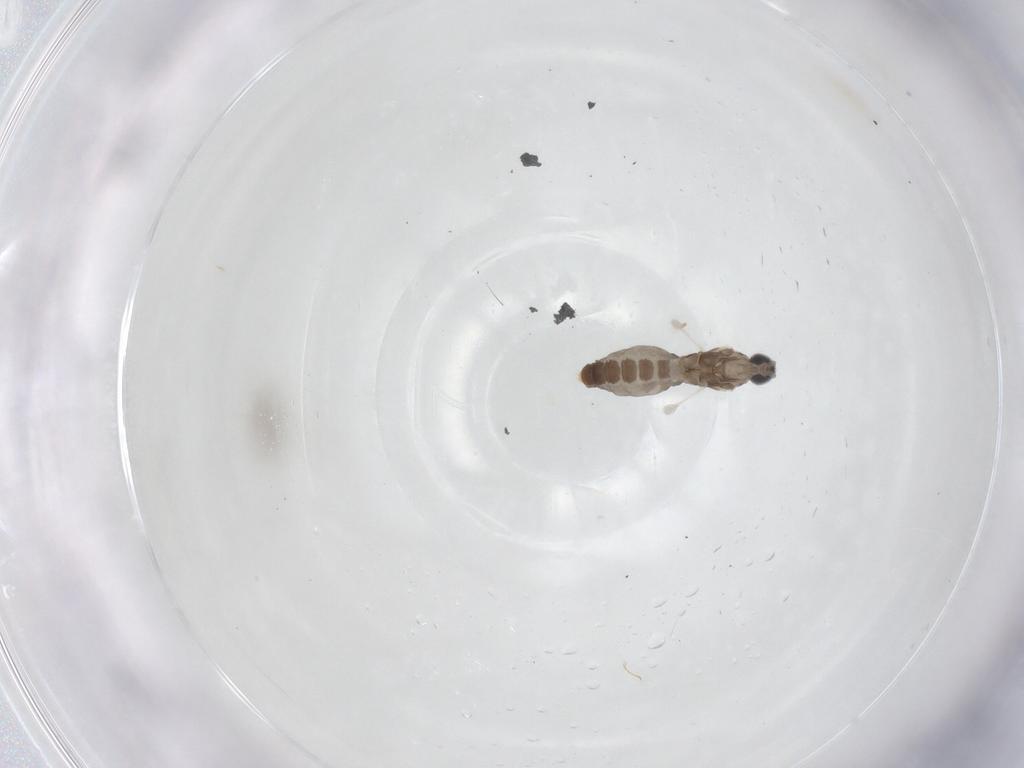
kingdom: Animalia
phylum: Arthropoda
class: Insecta
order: Diptera
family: Cecidomyiidae
